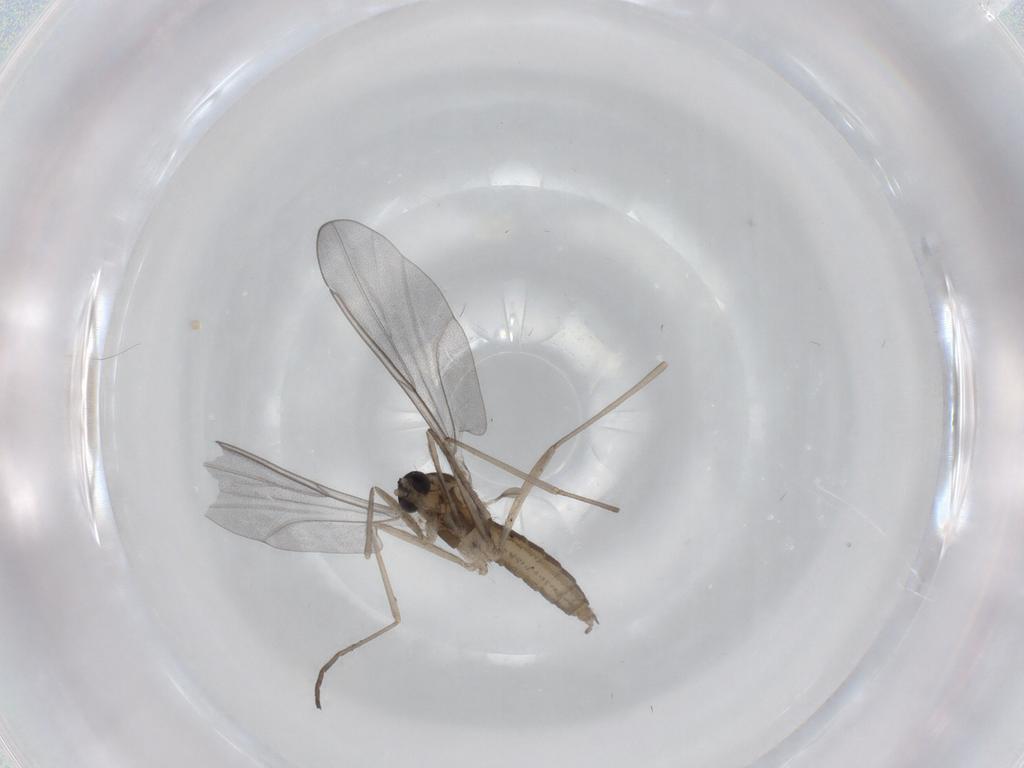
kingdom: Animalia
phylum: Arthropoda
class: Insecta
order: Diptera
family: Cecidomyiidae
